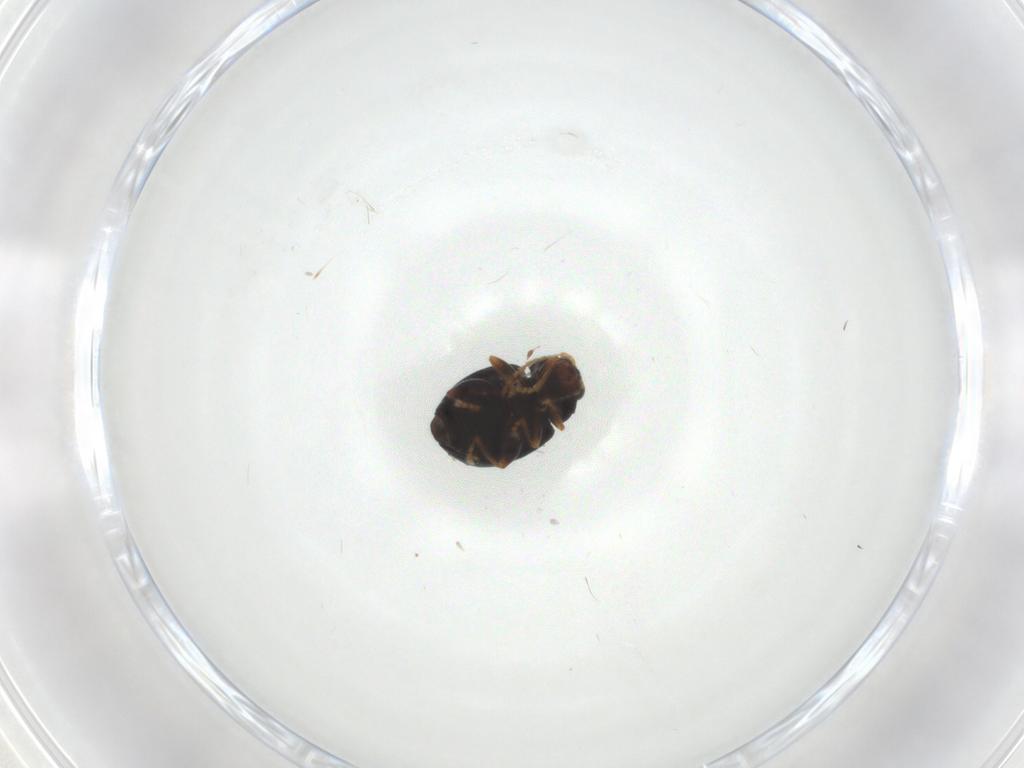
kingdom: Animalia
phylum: Arthropoda
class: Insecta
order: Coleoptera
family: Chrysomelidae
